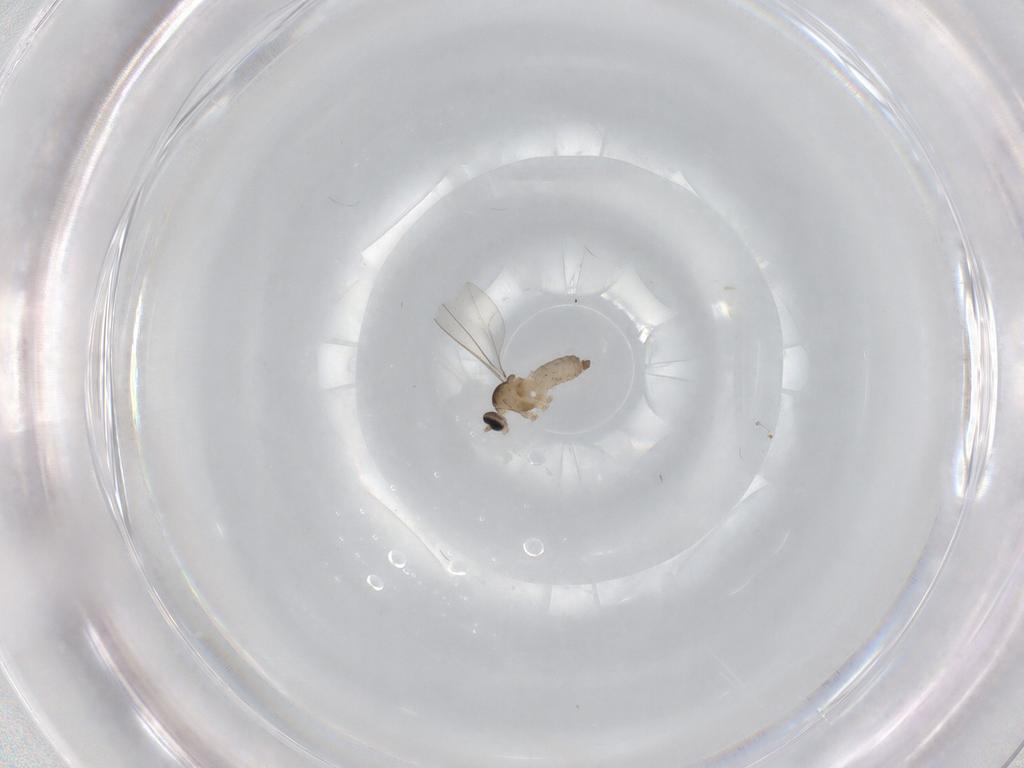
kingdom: Animalia
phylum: Arthropoda
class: Insecta
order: Diptera
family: Cecidomyiidae
